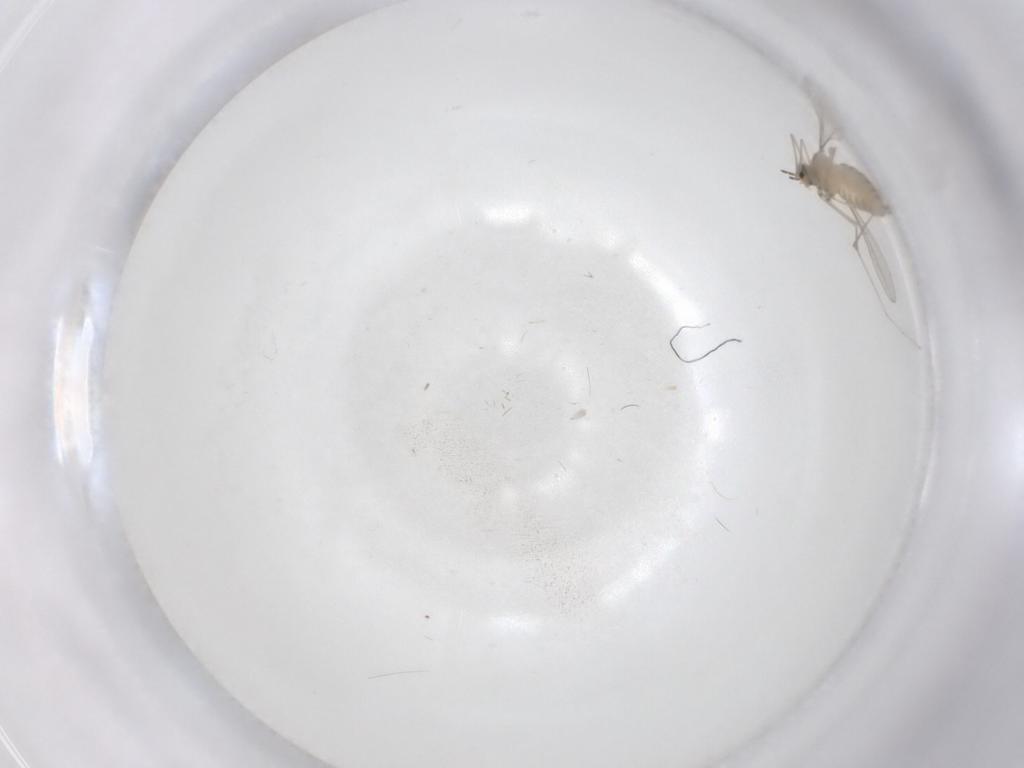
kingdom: Animalia
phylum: Arthropoda
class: Insecta
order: Diptera
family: Cecidomyiidae
